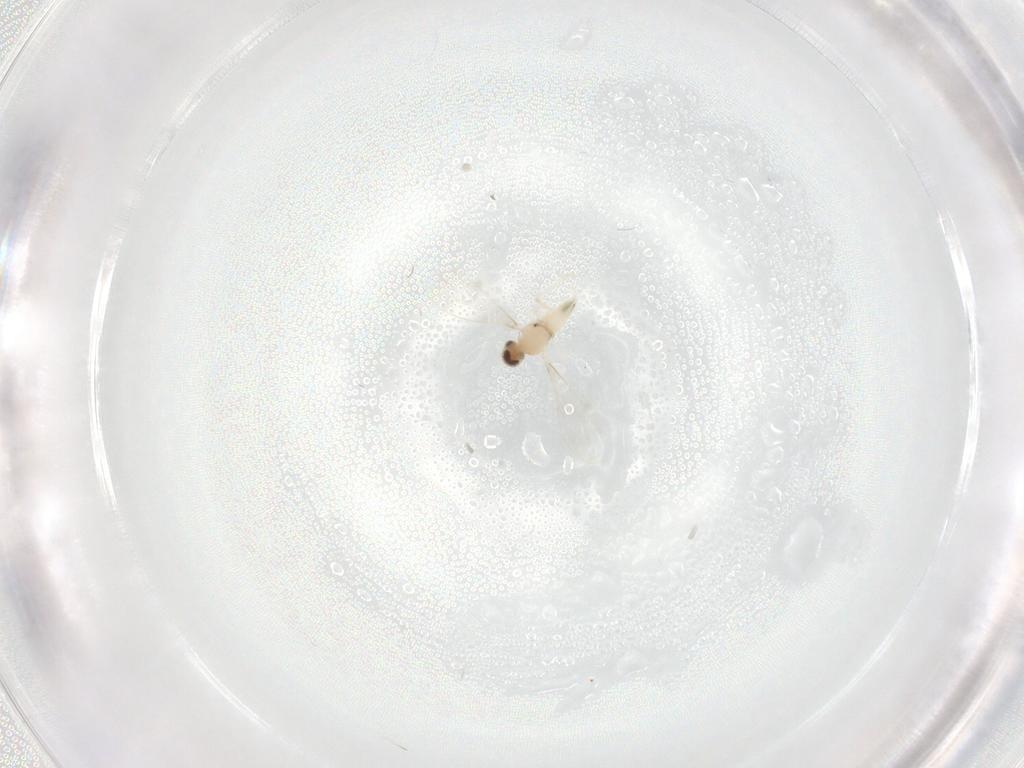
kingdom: Animalia
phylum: Arthropoda
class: Insecta
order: Diptera
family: Cecidomyiidae
